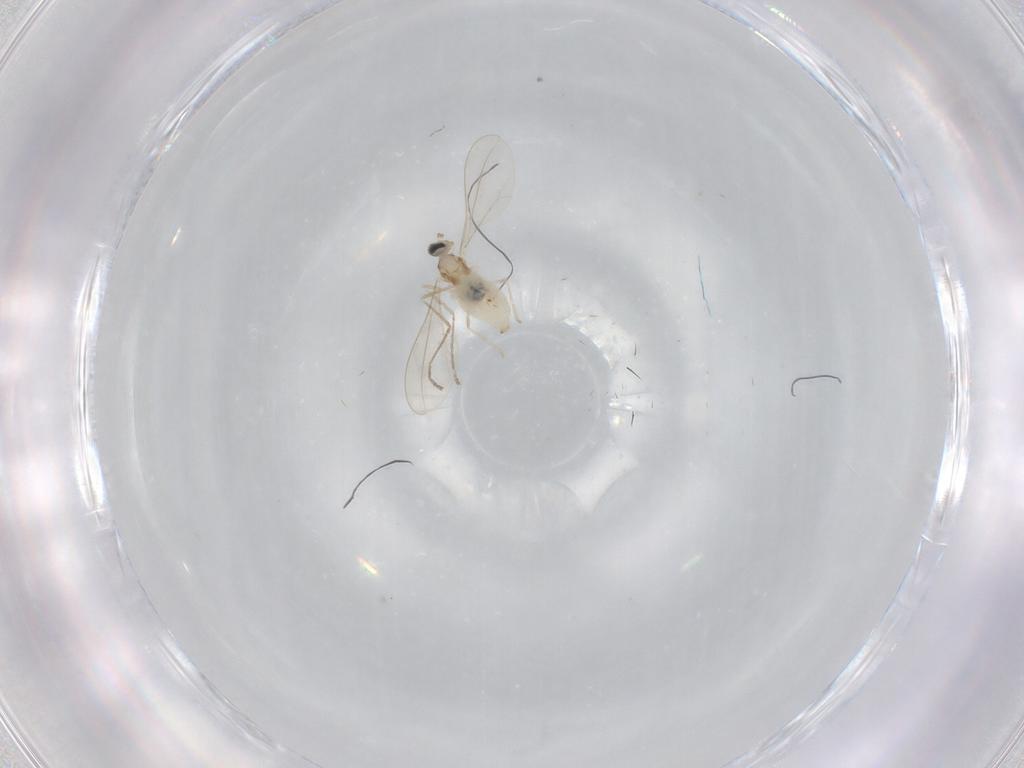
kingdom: Animalia
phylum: Arthropoda
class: Insecta
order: Diptera
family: Cecidomyiidae
